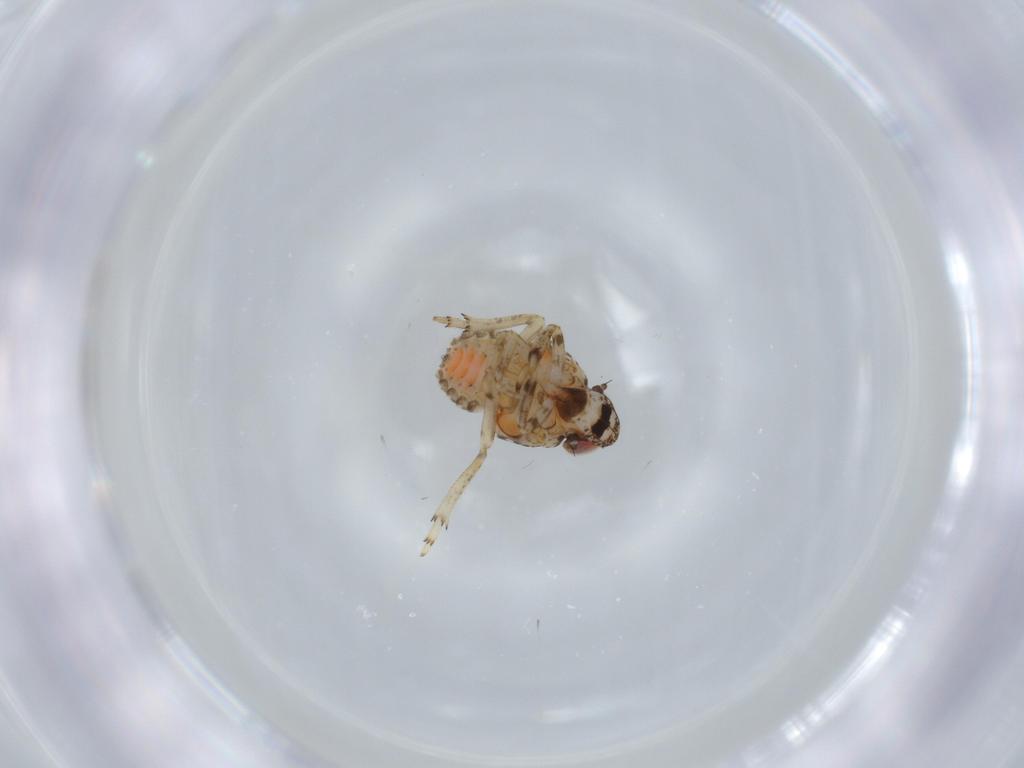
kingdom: Animalia
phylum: Arthropoda
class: Insecta
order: Hemiptera
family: Issidae
